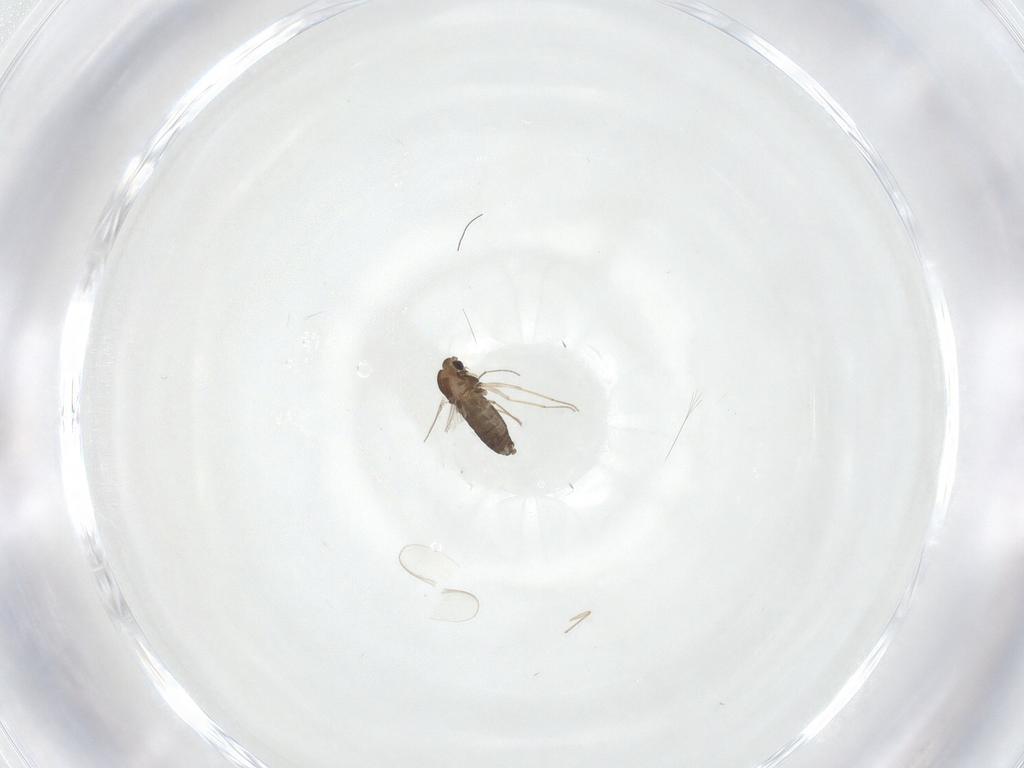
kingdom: Animalia
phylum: Arthropoda
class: Insecta
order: Diptera
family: Chironomidae
